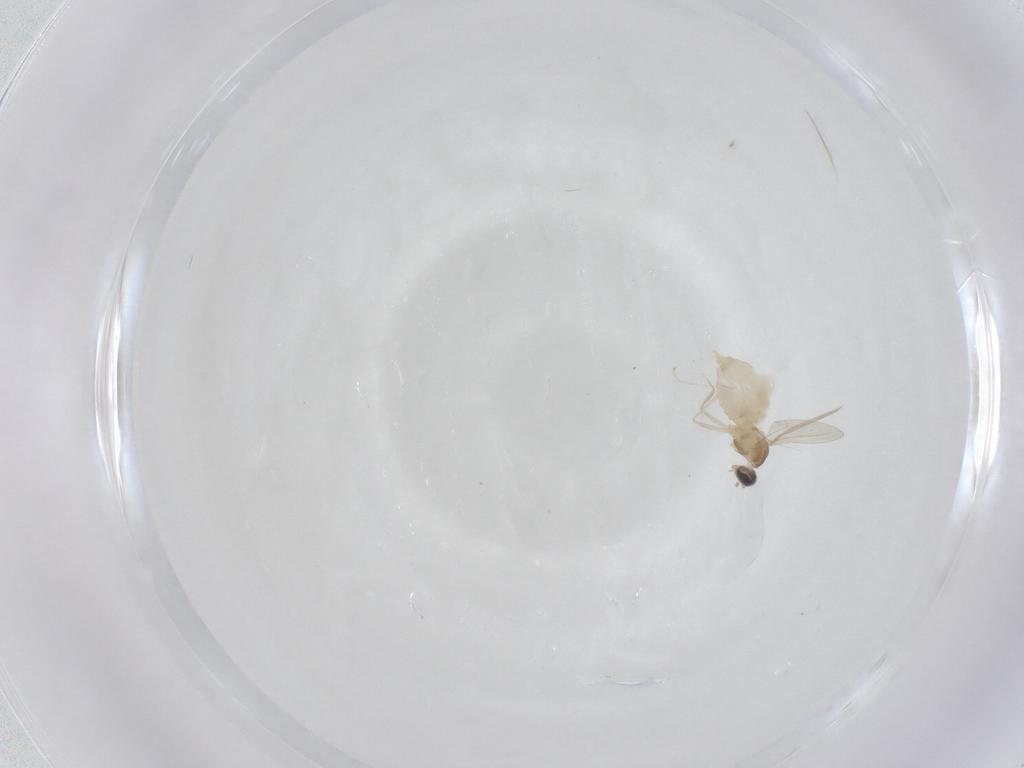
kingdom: Animalia
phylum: Arthropoda
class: Insecta
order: Diptera
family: Cecidomyiidae
